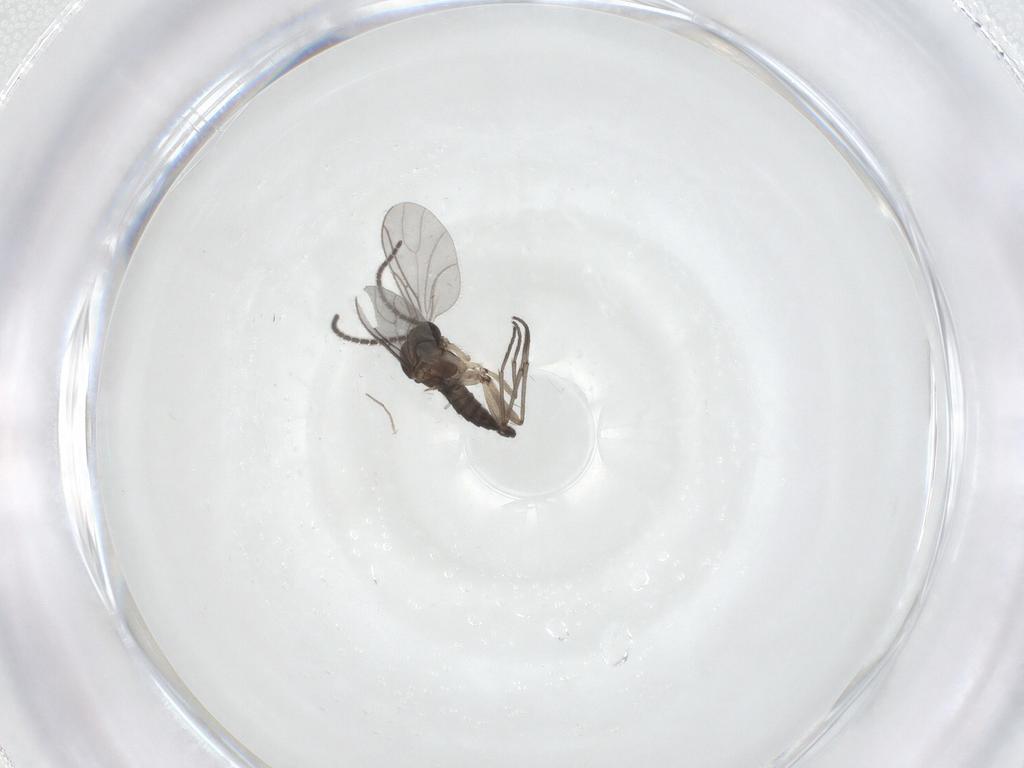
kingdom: Animalia
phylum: Arthropoda
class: Insecta
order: Diptera
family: Sciaridae
